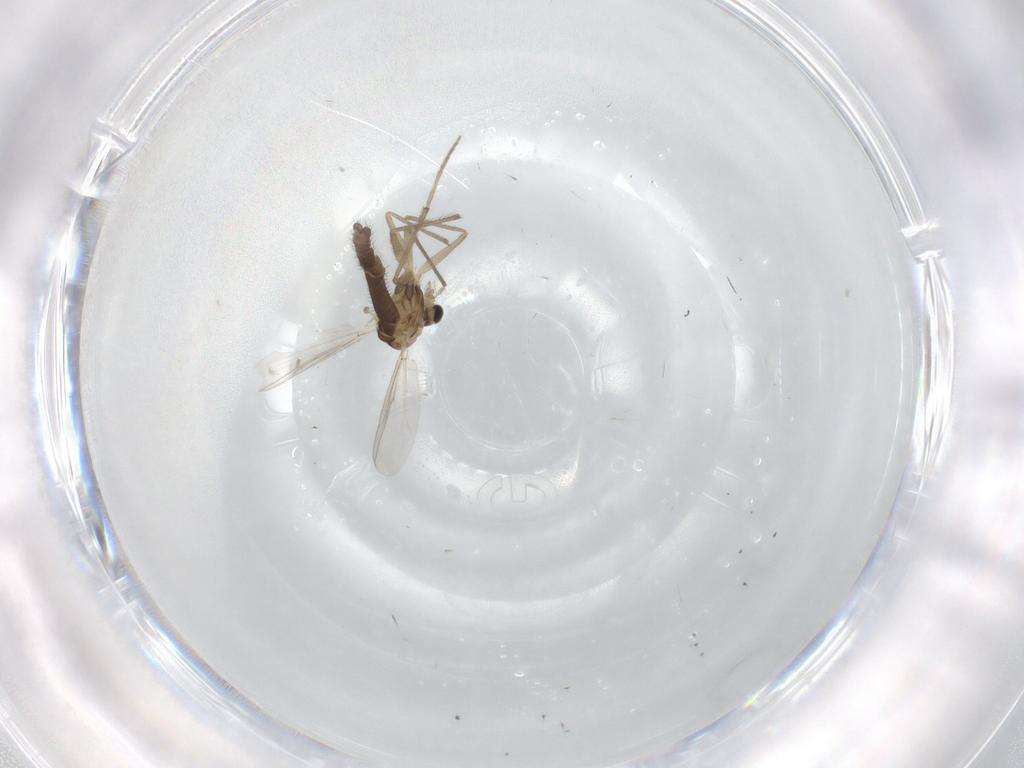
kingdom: Animalia
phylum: Arthropoda
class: Insecta
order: Diptera
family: Chironomidae
